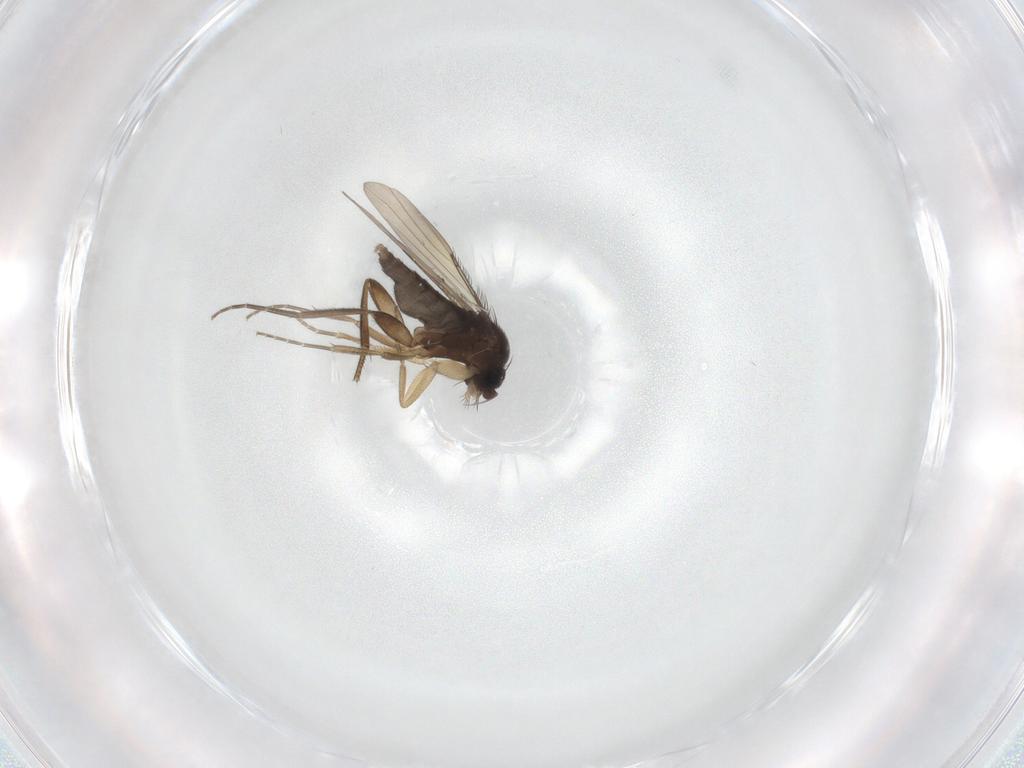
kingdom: Animalia
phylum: Arthropoda
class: Insecta
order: Diptera
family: Phoridae
